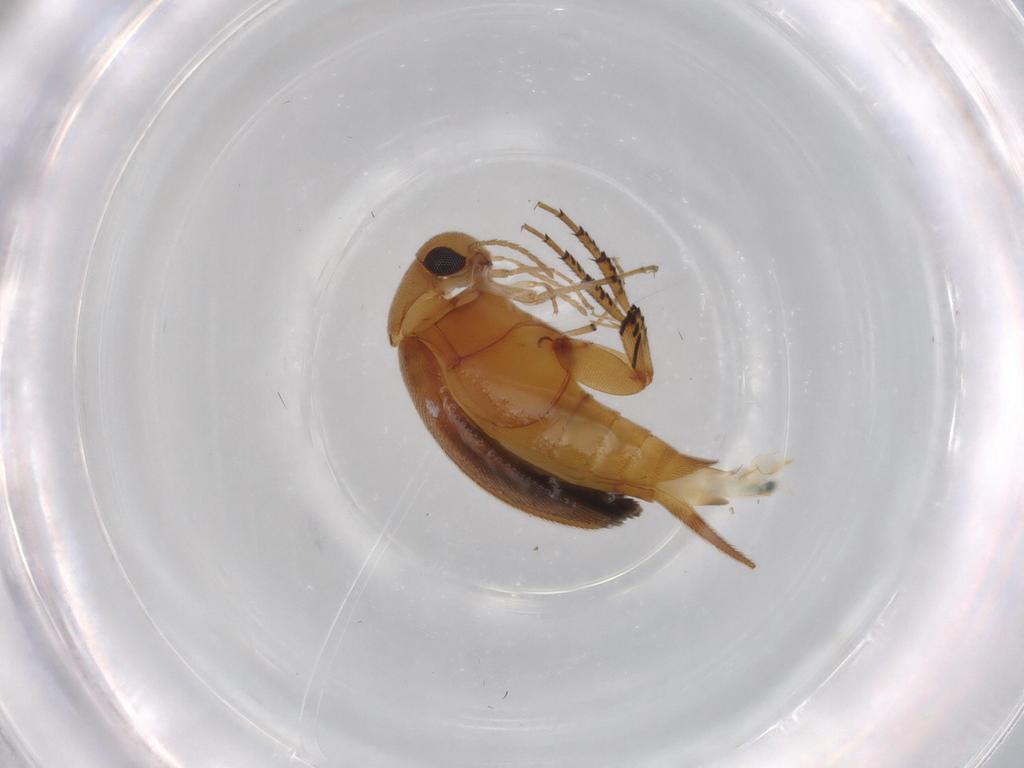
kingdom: Animalia
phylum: Arthropoda
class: Insecta
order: Coleoptera
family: Mordellidae
